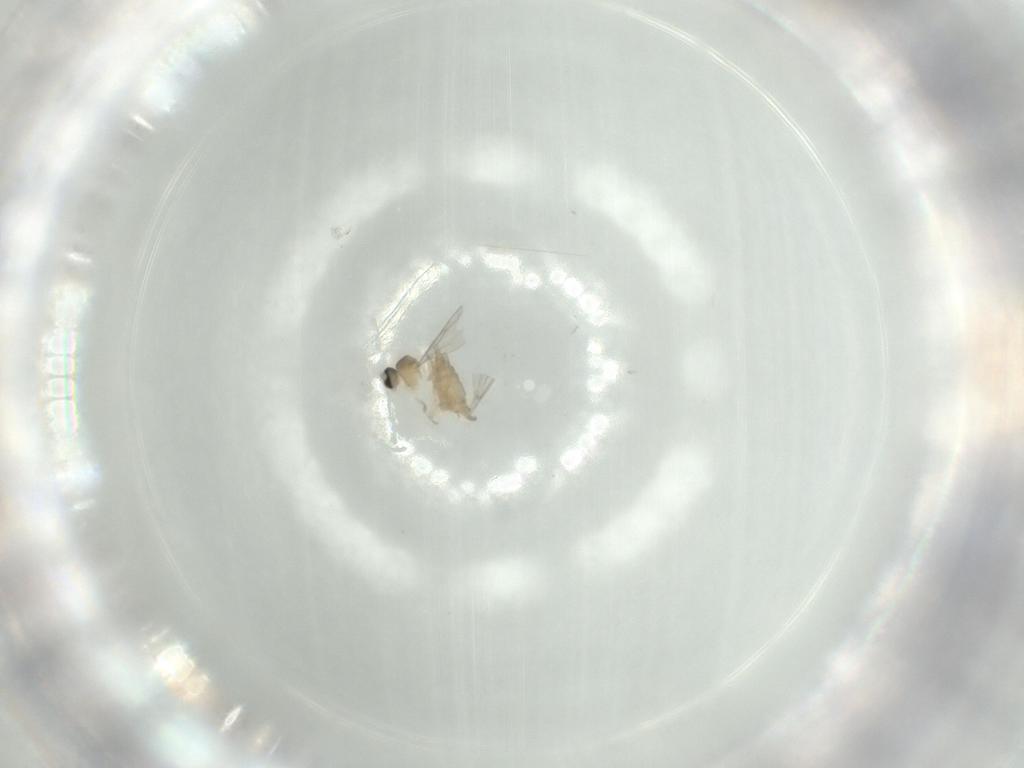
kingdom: Animalia
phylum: Arthropoda
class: Insecta
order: Diptera
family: Cecidomyiidae
